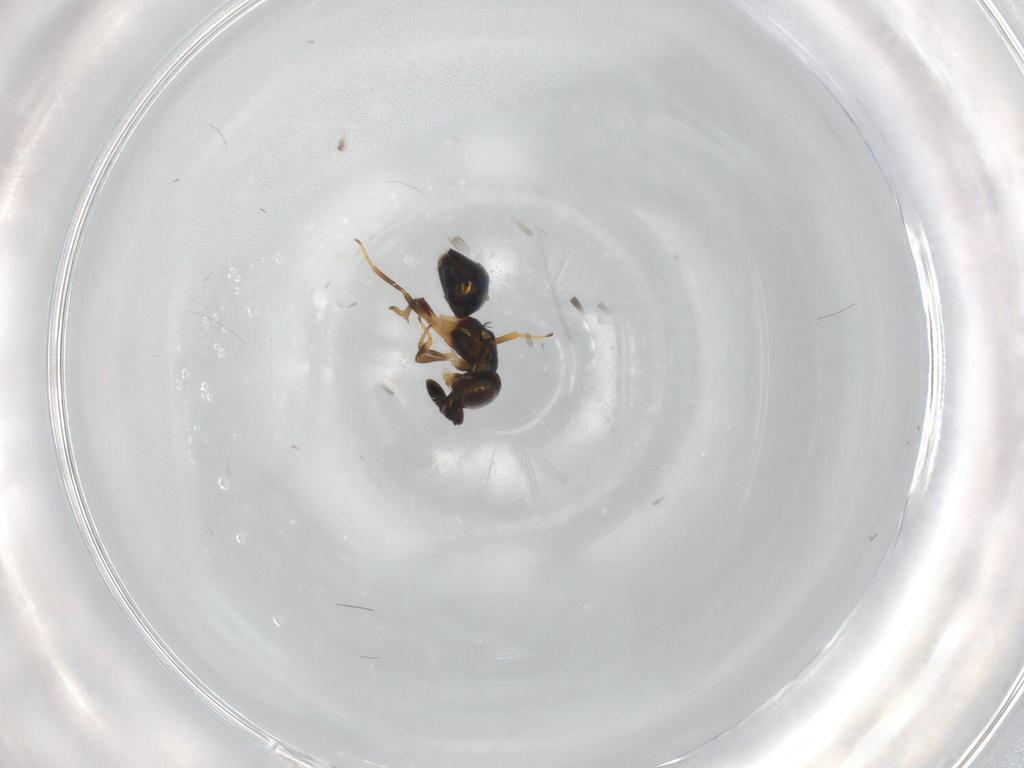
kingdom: Animalia
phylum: Arthropoda
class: Insecta
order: Hymenoptera
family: Encyrtidae
